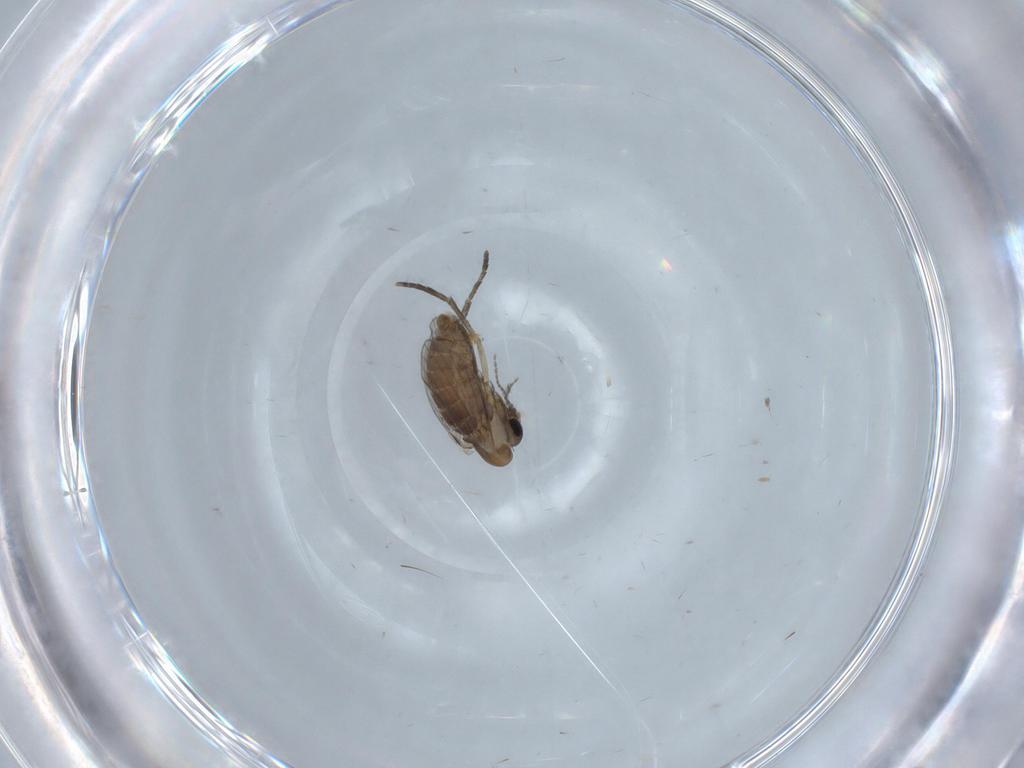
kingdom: Animalia
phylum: Arthropoda
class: Insecta
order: Diptera
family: Psychodidae
